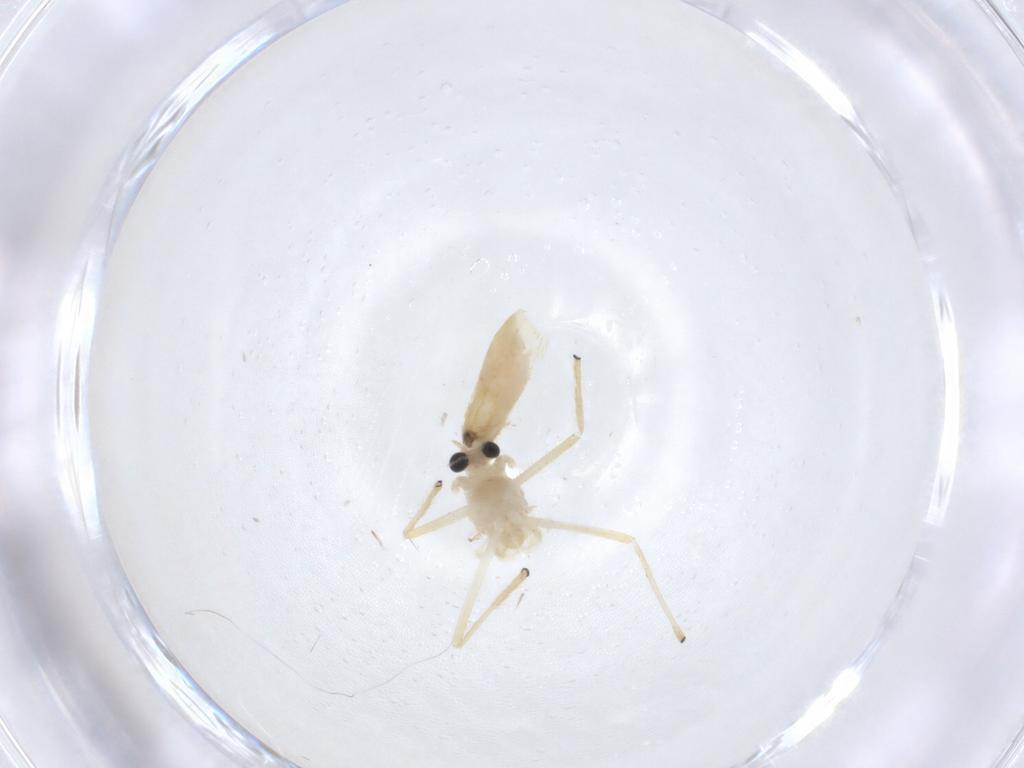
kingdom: Animalia
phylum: Arthropoda
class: Insecta
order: Diptera
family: Chironomidae
